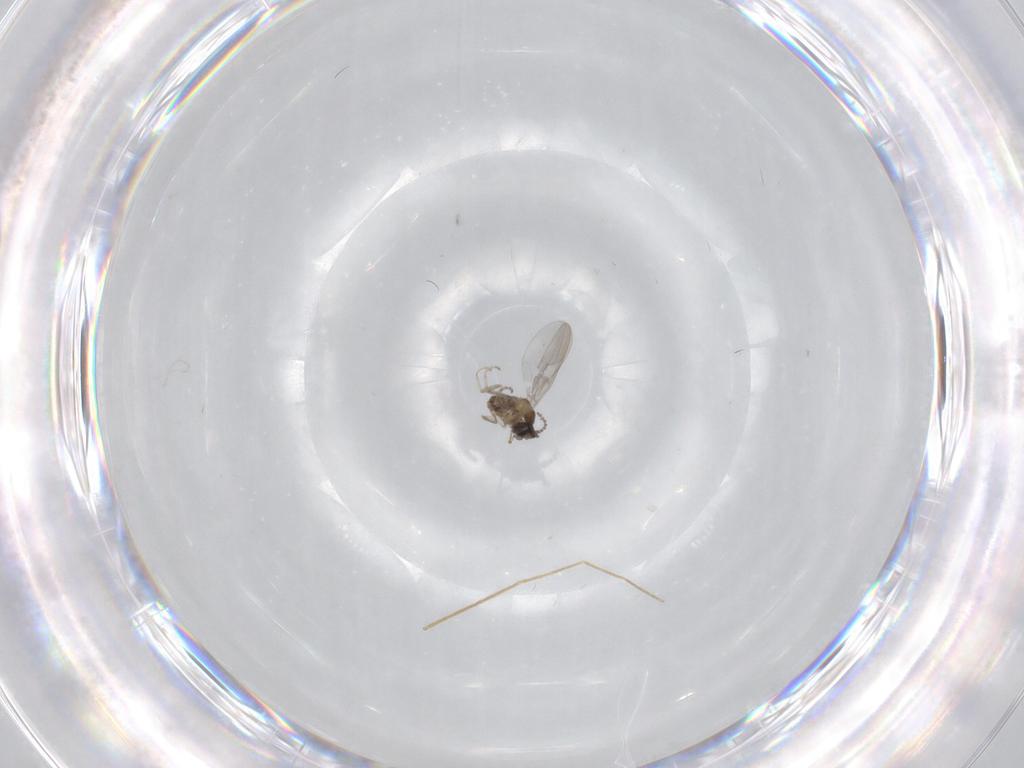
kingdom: Animalia
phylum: Arthropoda
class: Insecta
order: Diptera
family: Cecidomyiidae
